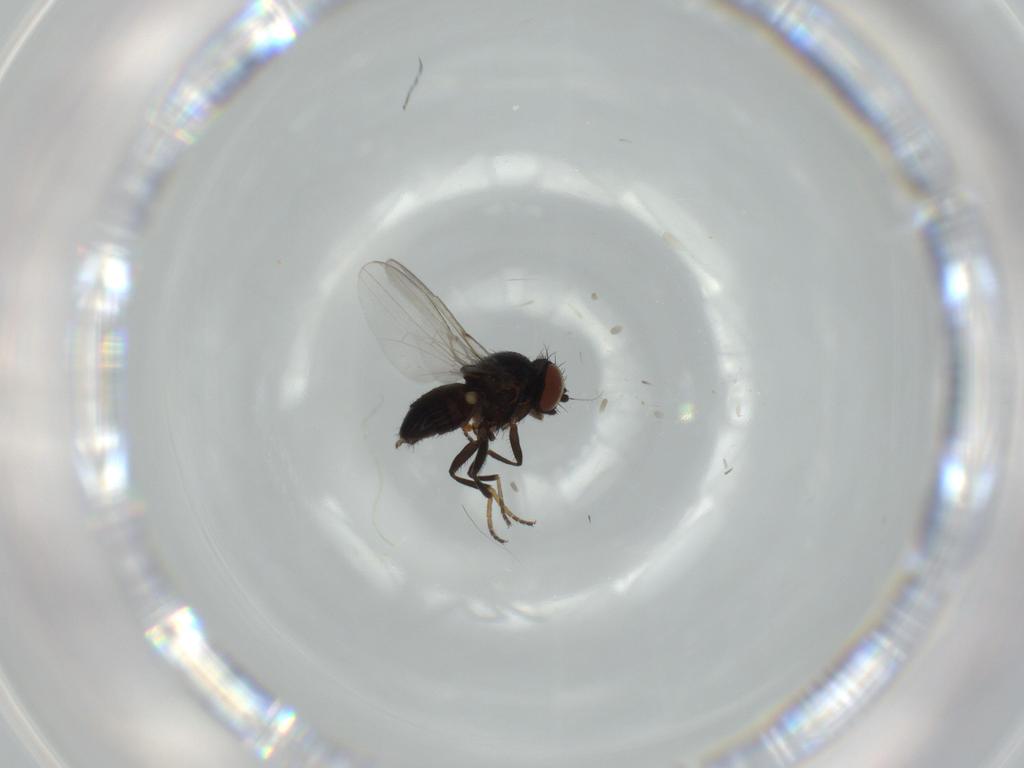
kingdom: Animalia
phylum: Arthropoda
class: Insecta
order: Diptera
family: Milichiidae
